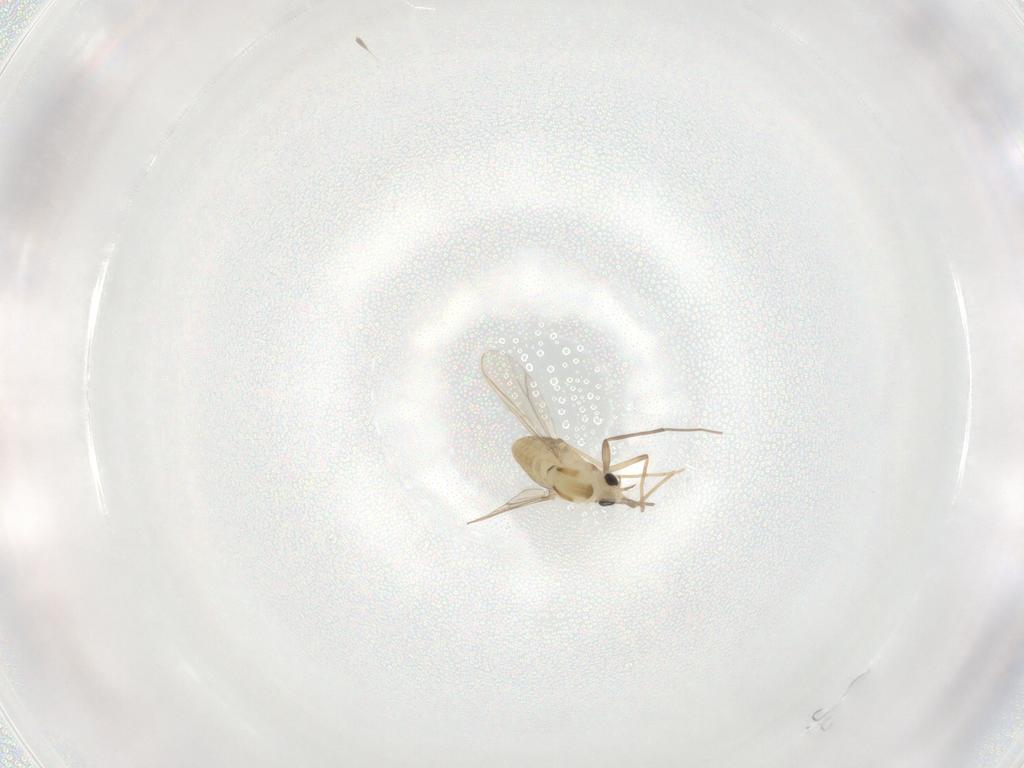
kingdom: Animalia
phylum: Arthropoda
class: Insecta
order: Diptera
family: Chironomidae
